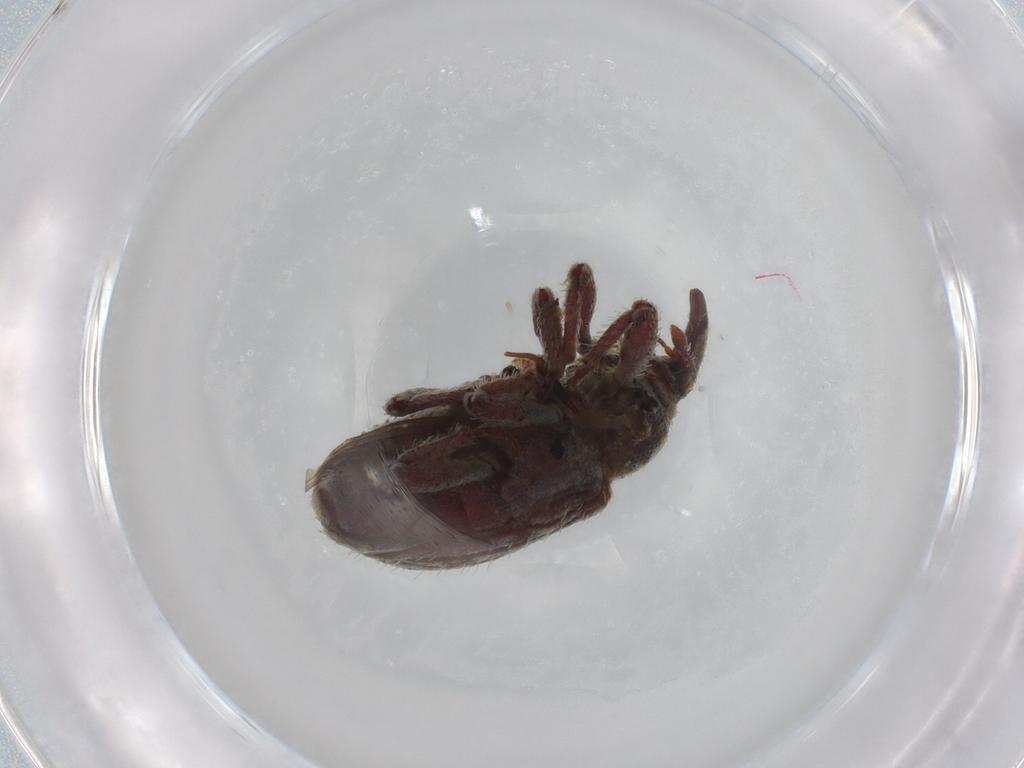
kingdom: Animalia
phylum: Arthropoda
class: Insecta
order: Coleoptera
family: Curculionidae
